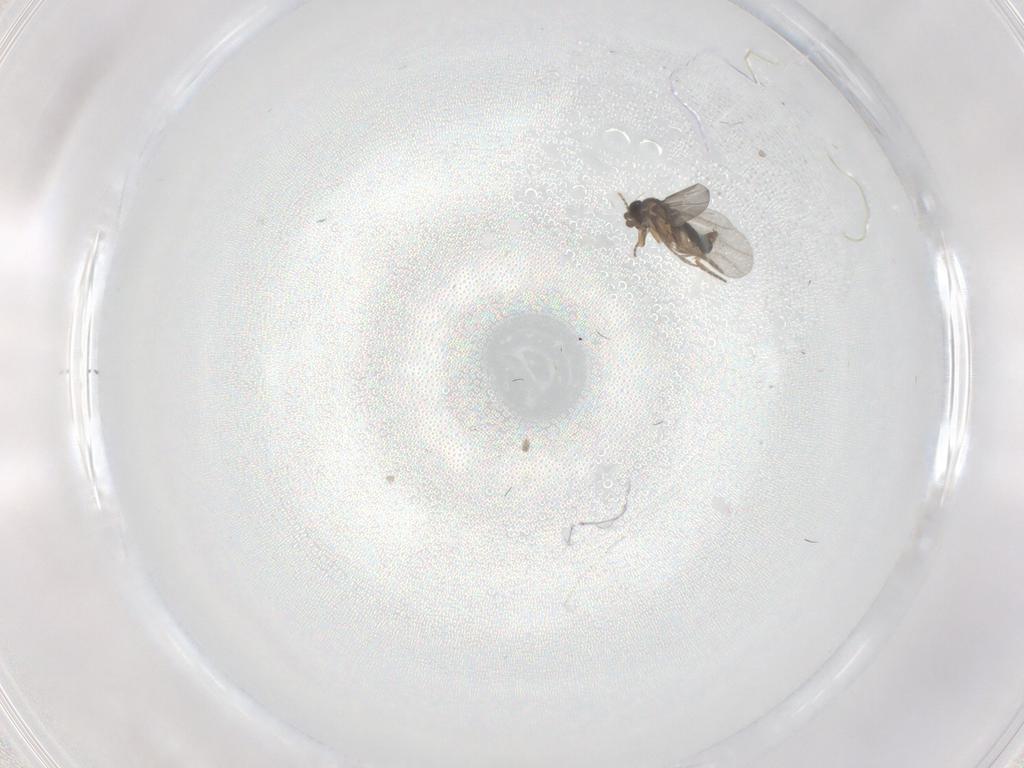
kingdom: Animalia
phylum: Arthropoda
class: Insecta
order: Diptera
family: Cecidomyiidae
